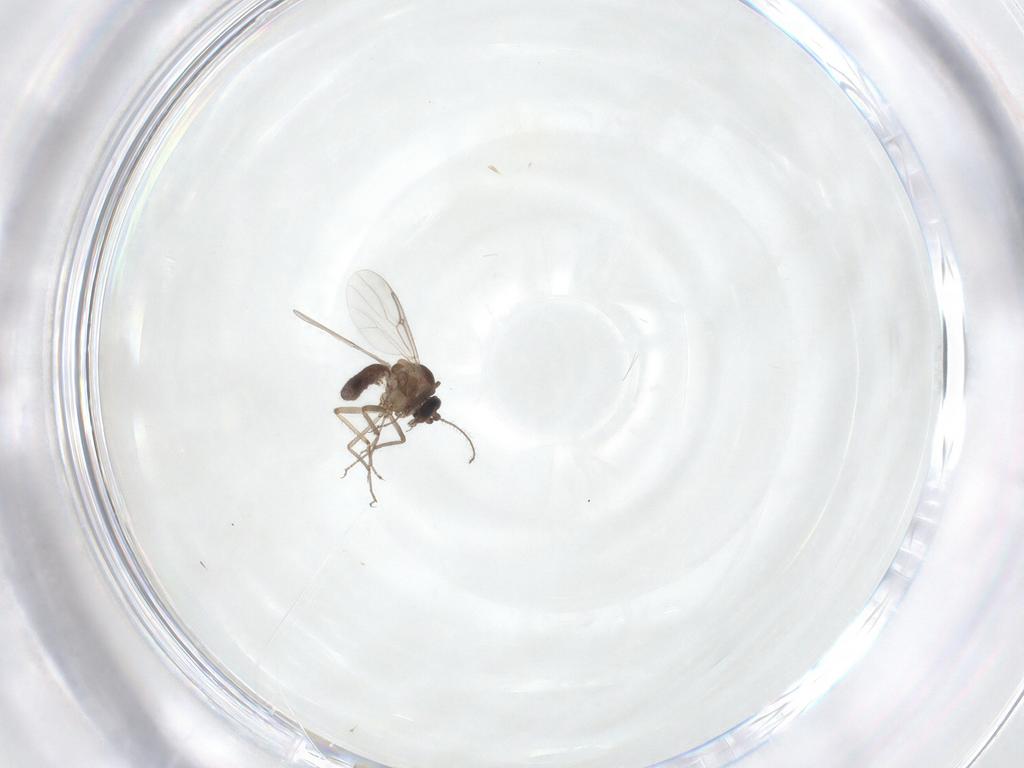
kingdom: Animalia
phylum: Arthropoda
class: Insecta
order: Diptera
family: Ceratopogonidae
